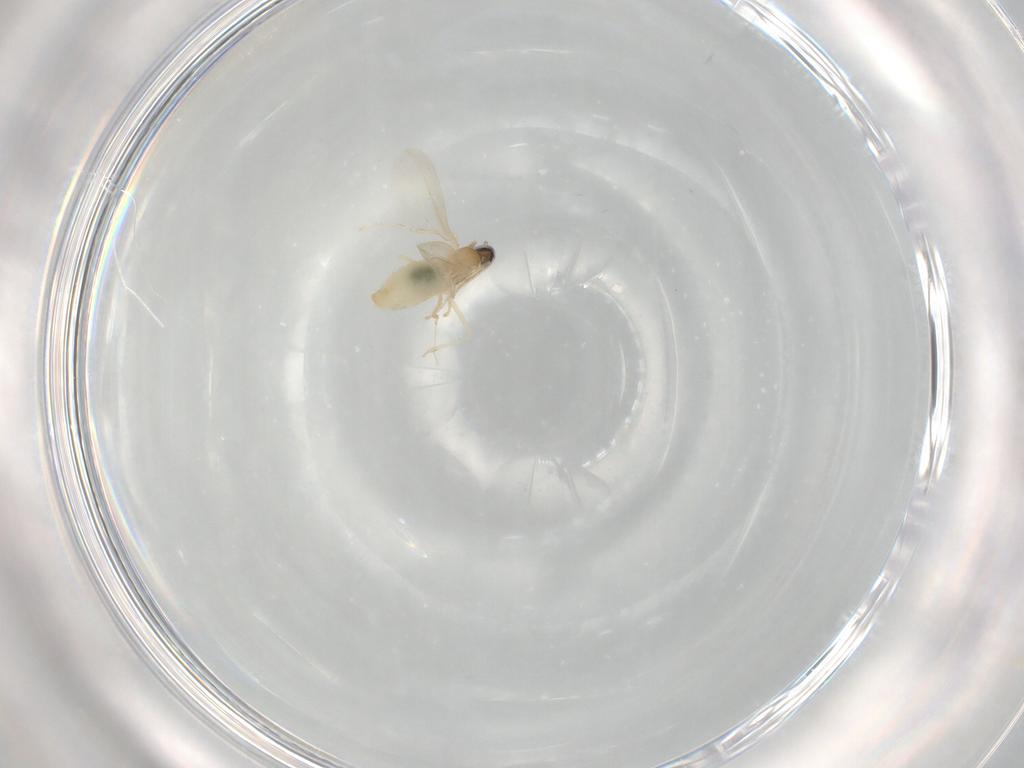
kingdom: Animalia
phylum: Arthropoda
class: Insecta
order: Diptera
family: Cecidomyiidae
